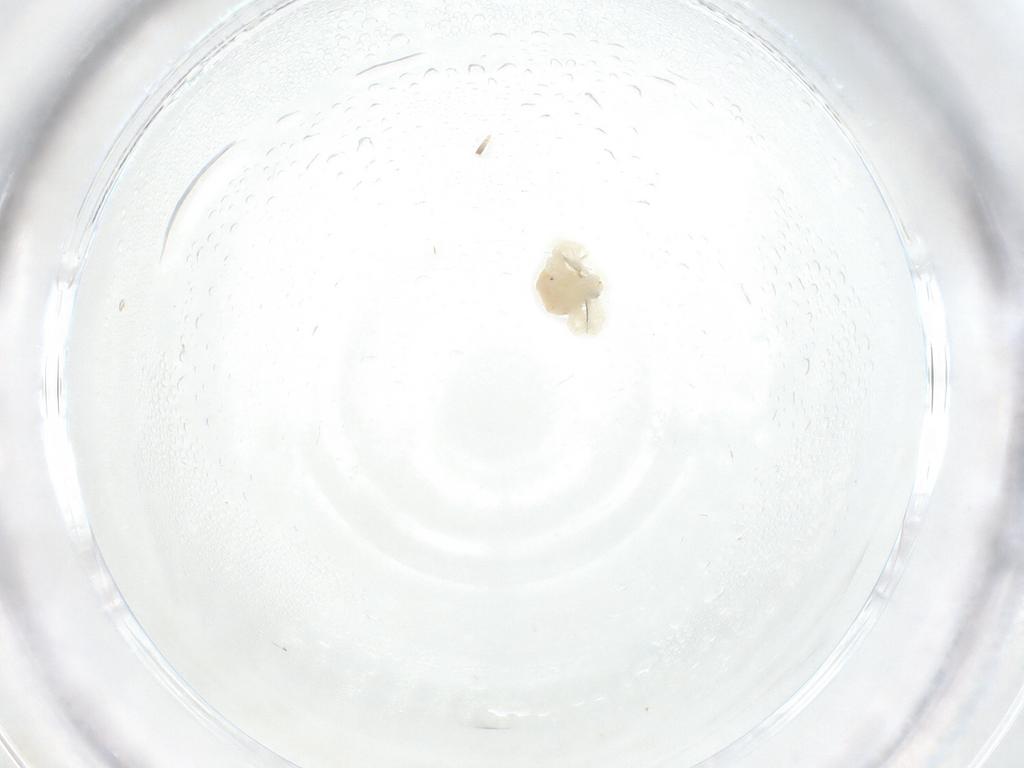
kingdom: Animalia
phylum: Arthropoda
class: Arachnida
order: Trombidiformes
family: Anystidae
